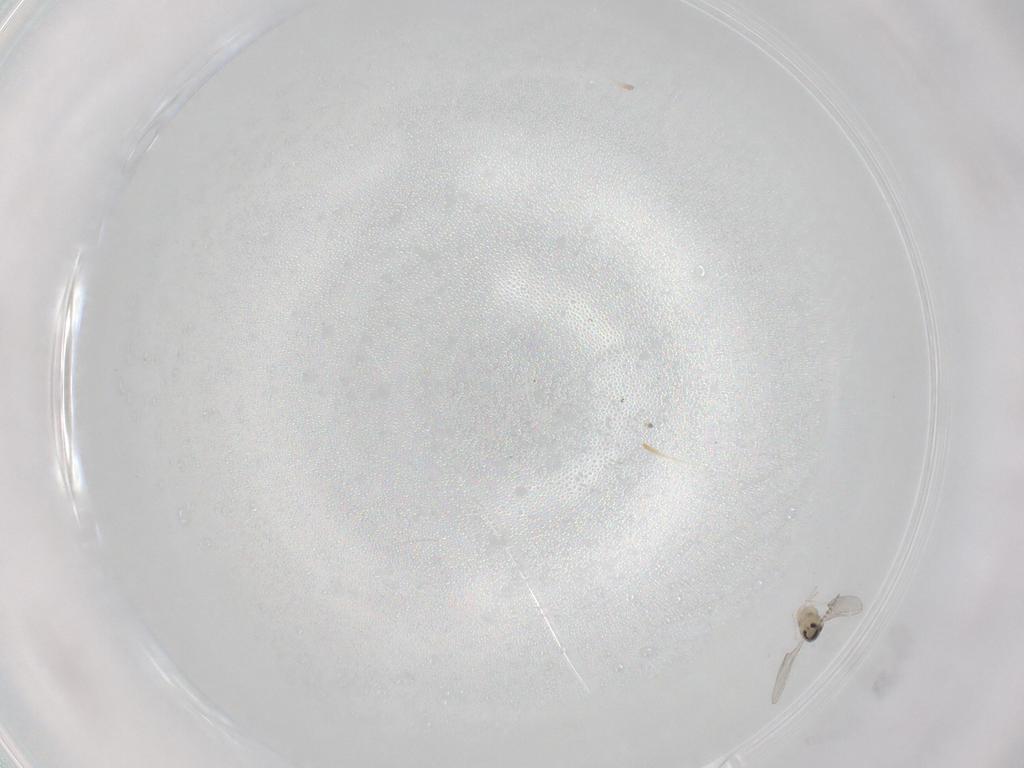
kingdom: Animalia
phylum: Arthropoda
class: Insecta
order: Diptera
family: Cecidomyiidae
